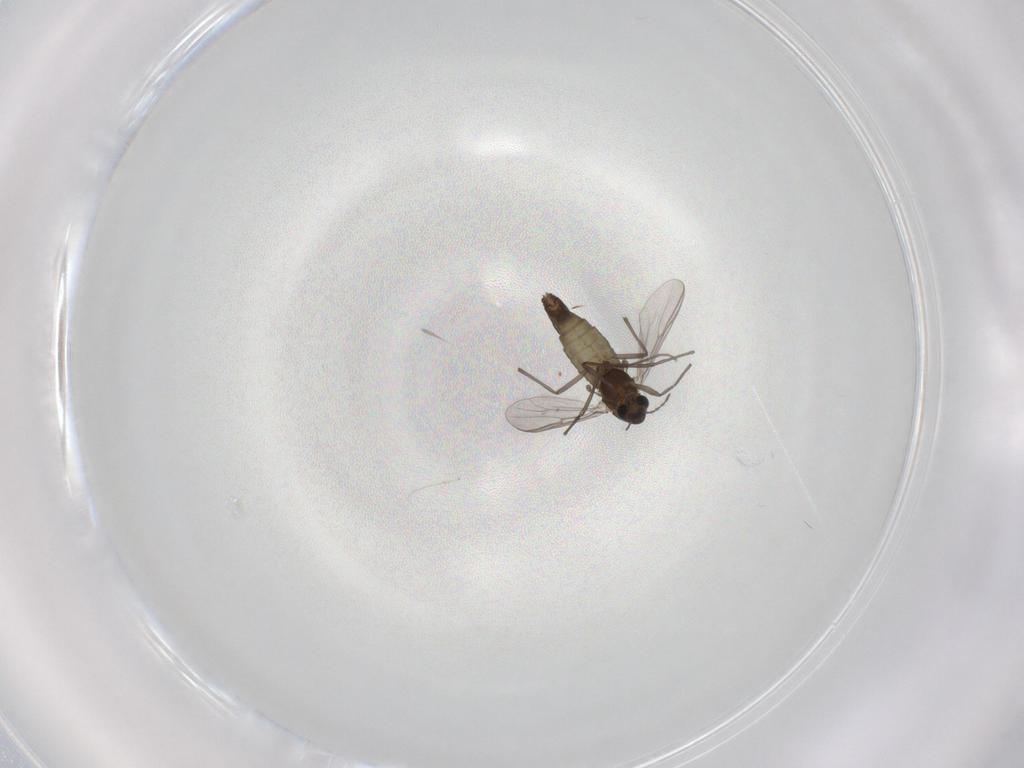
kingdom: Animalia
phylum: Arthropoda
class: Insecta
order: Diptera
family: Chironomidae
